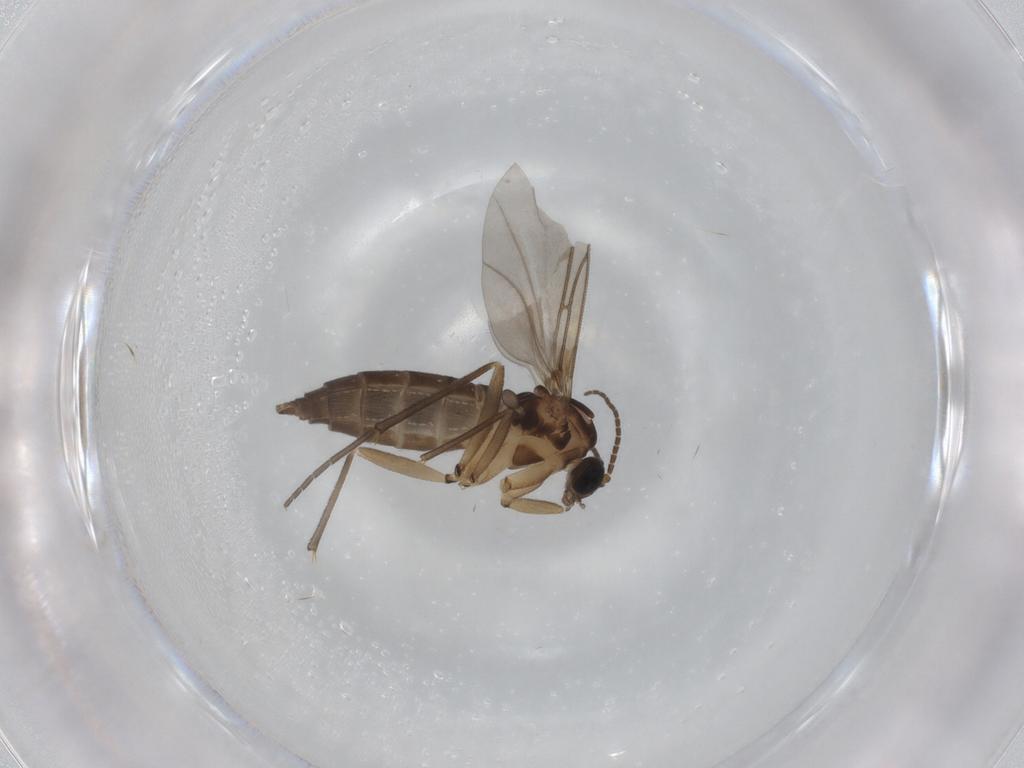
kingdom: Animalia
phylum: Arthropoda
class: Insecta
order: Diptera
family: Sciaridae
